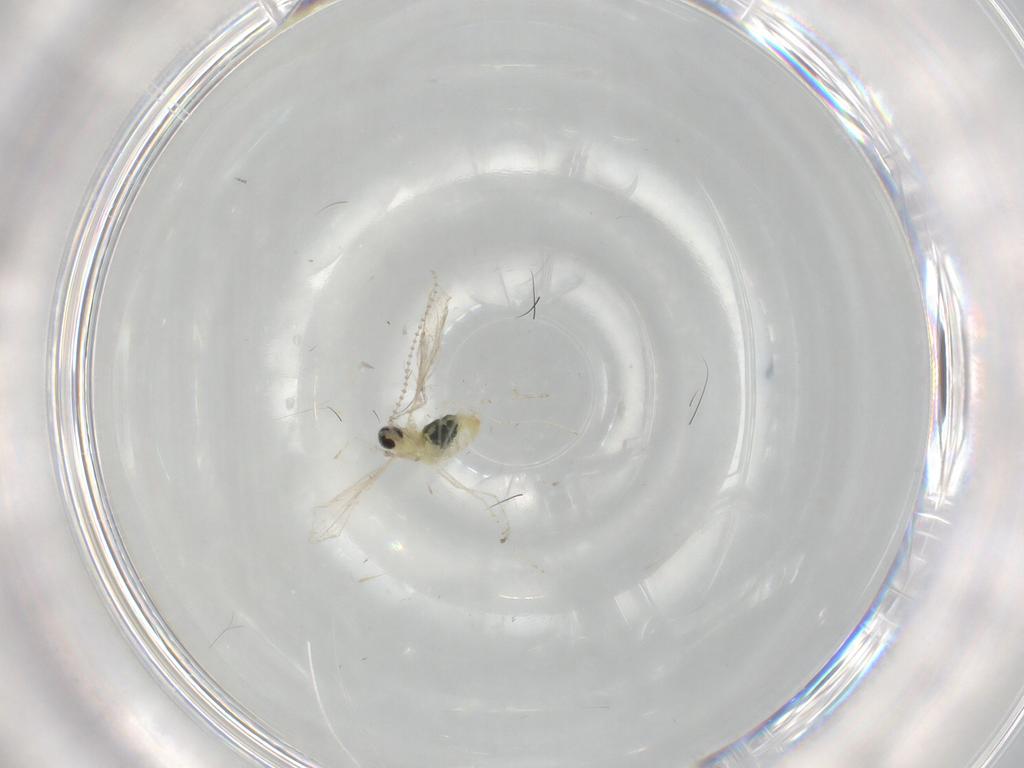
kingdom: Animalia
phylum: Arthropoda
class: Insecta
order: Diptera
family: Cecidomyiidae
